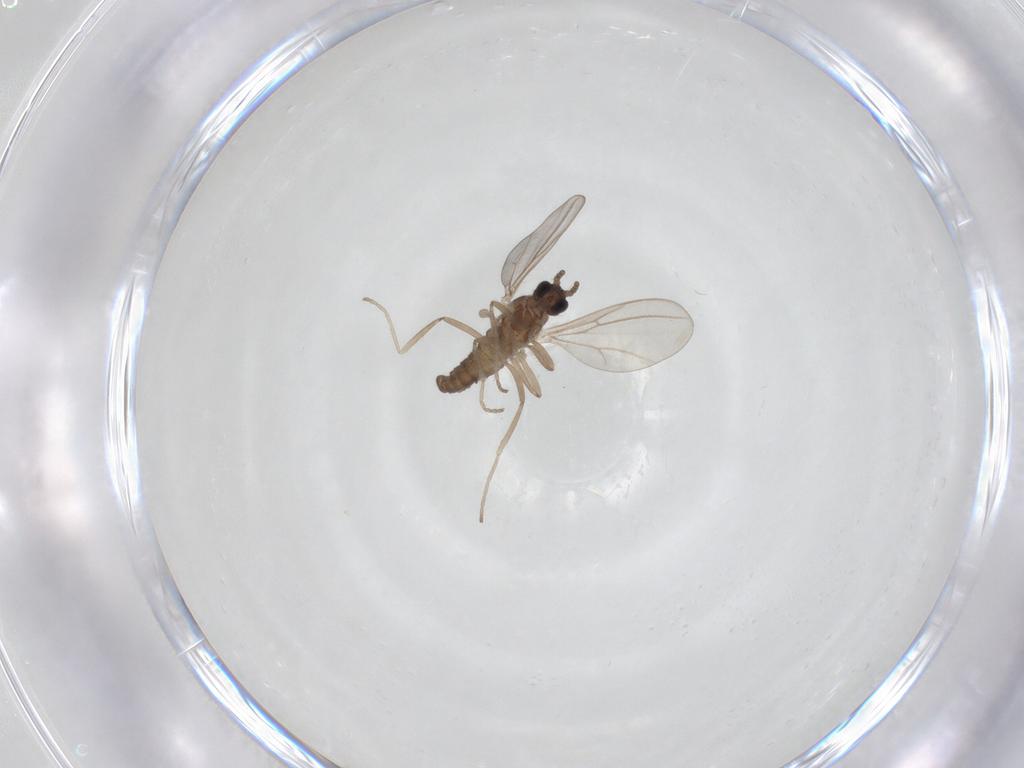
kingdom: Animalia
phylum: Arthropoda
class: Insecta
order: Diptera
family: Cecidomyiidae
